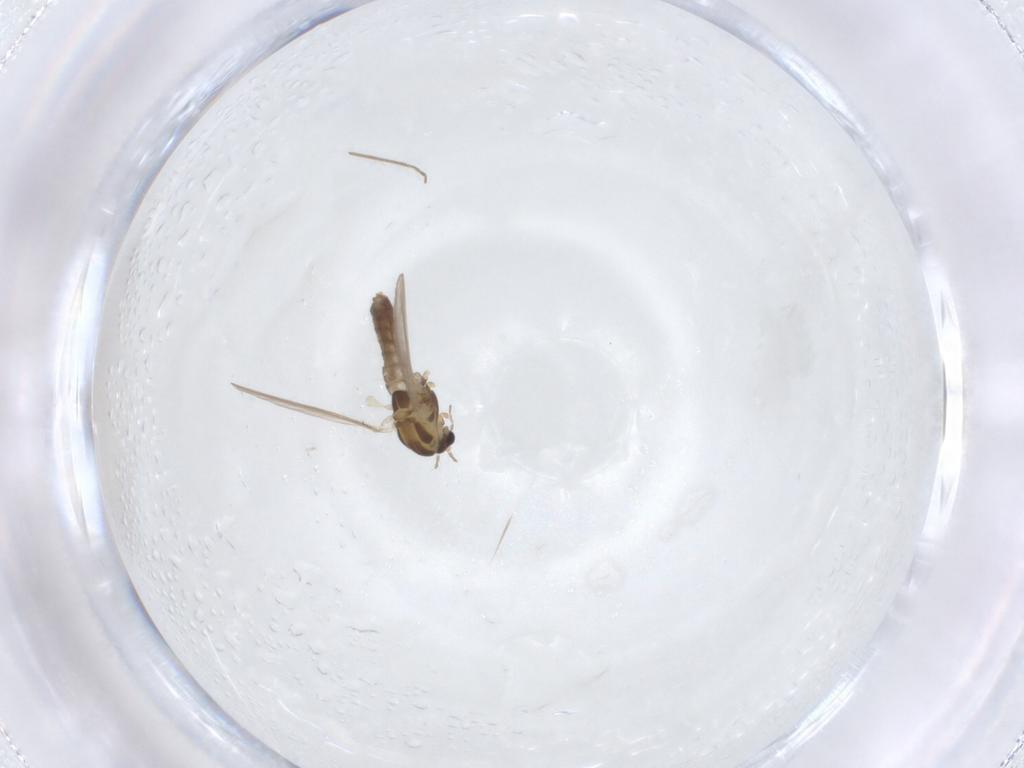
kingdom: Animalia
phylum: Arthropoda
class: Insecta
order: Diptera
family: Chironomidae
